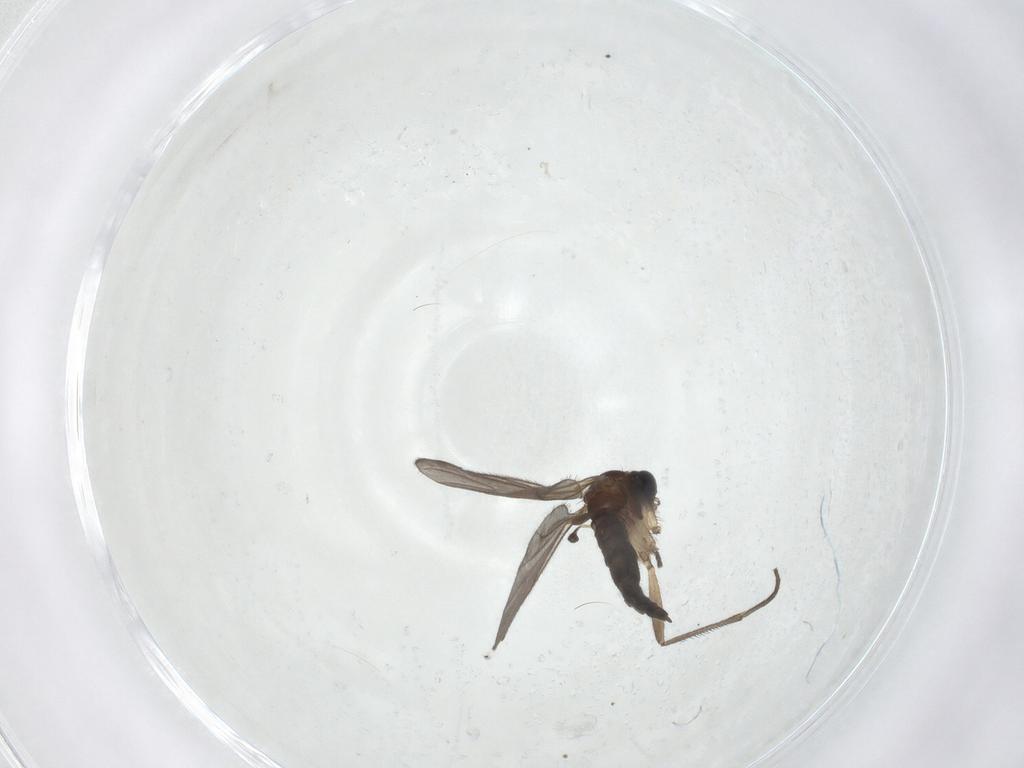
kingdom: Animalia
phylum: Arthropoda
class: Insecta
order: Diptera
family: Sciaridae
